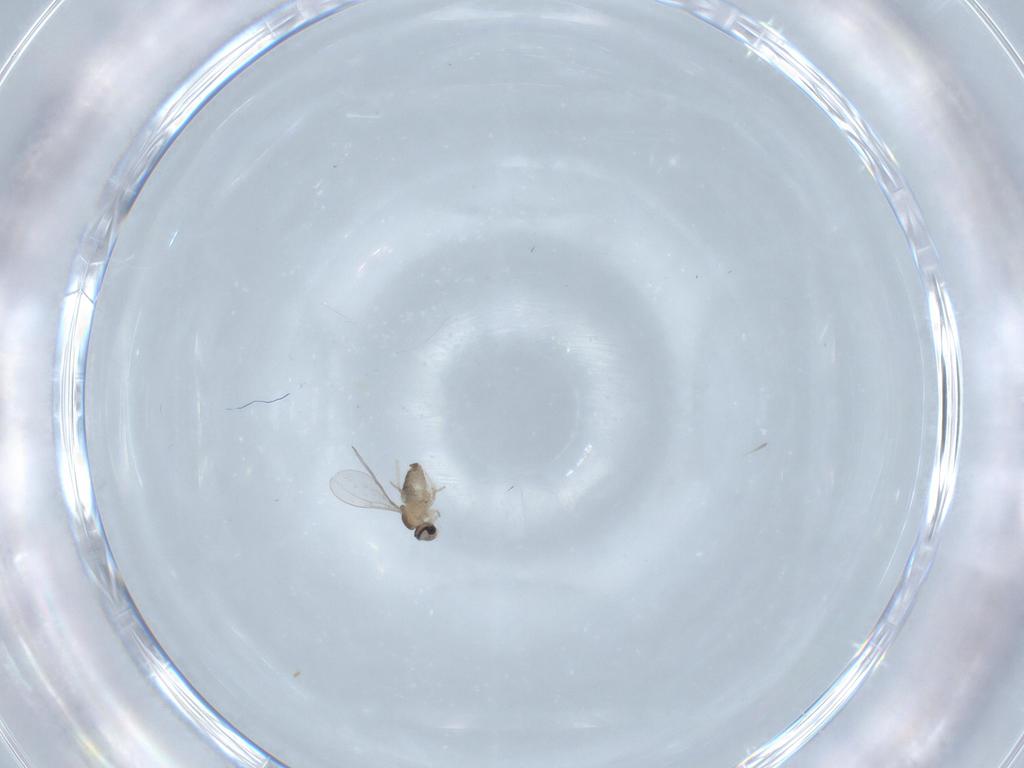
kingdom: Animalia
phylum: Arthropoda
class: Insecta
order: Diptera
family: Cecidomyiidae
